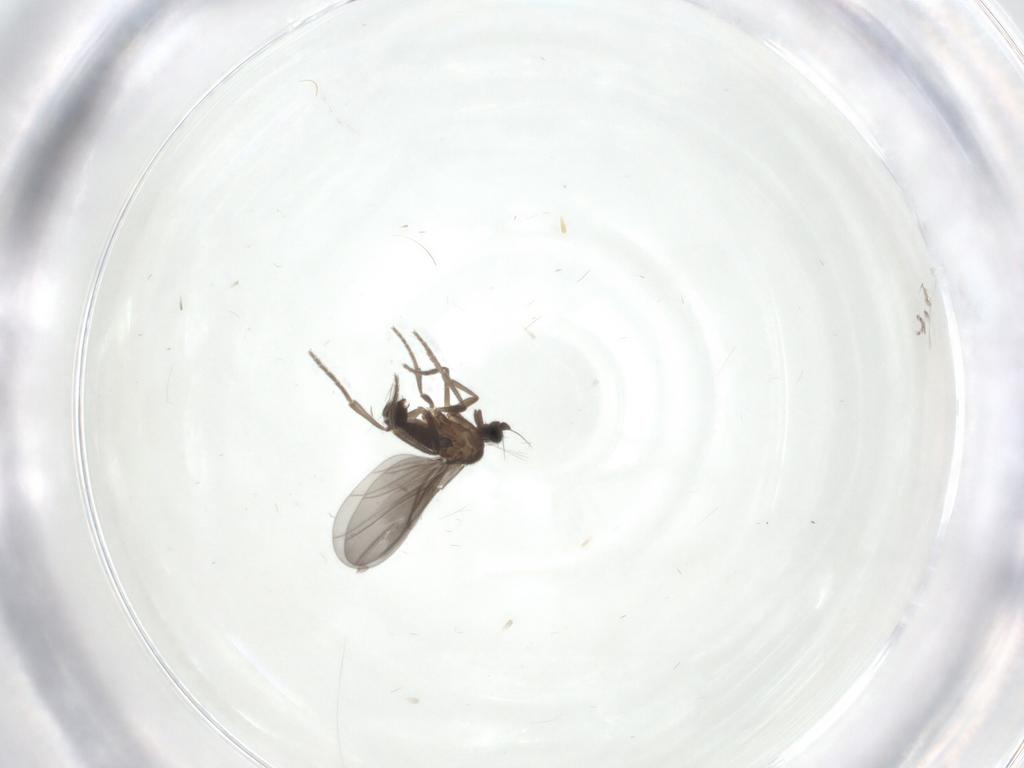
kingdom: Animalia
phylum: Arthropoda
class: Insecta
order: Diptera
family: Phoridae
